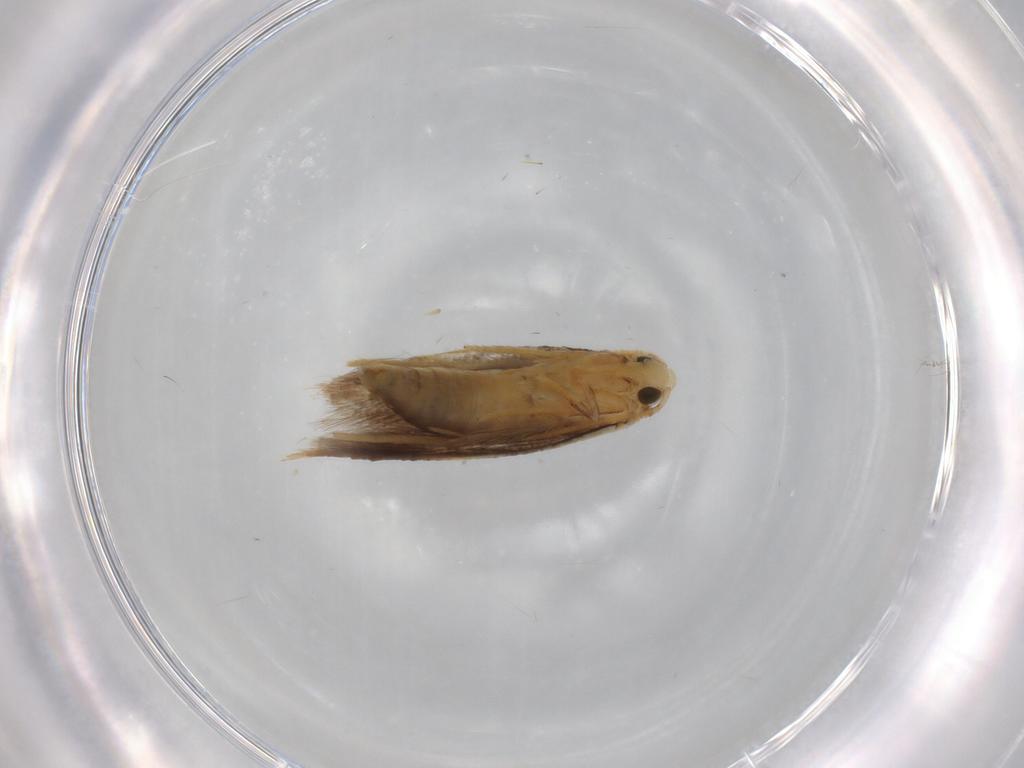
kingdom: Animalia
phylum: Arthropoda
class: Insecta
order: Lepidoptera
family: Tineidae
